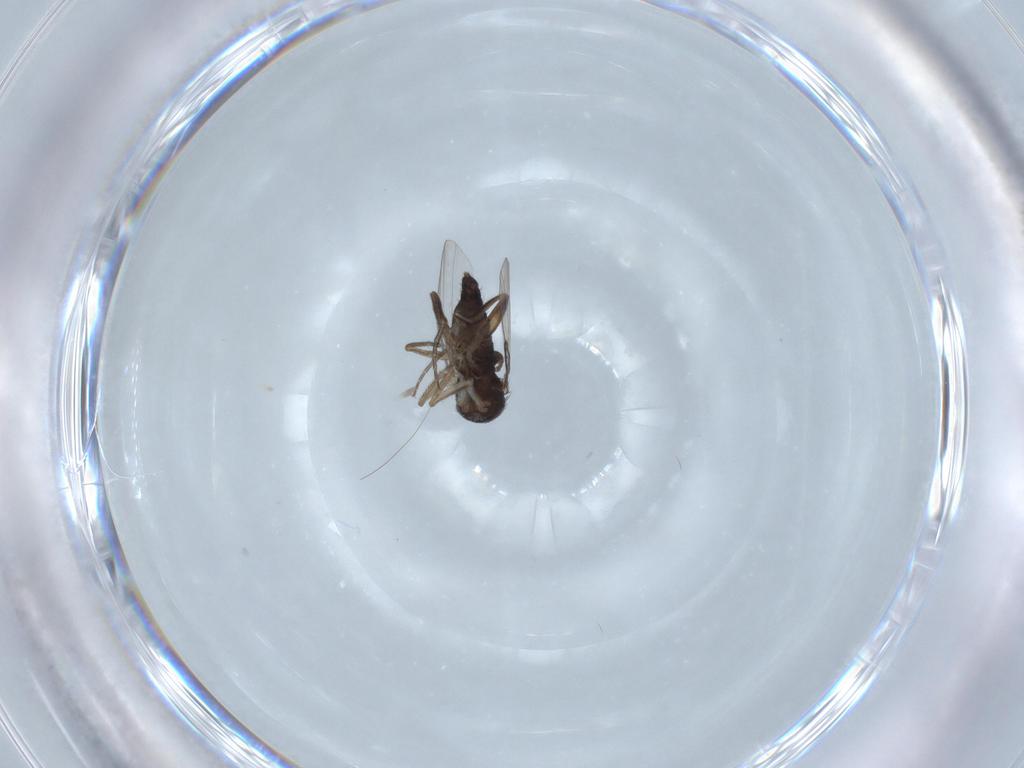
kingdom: Animalia
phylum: Arthropoda
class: Insecta
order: Diptera
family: Phoridae
